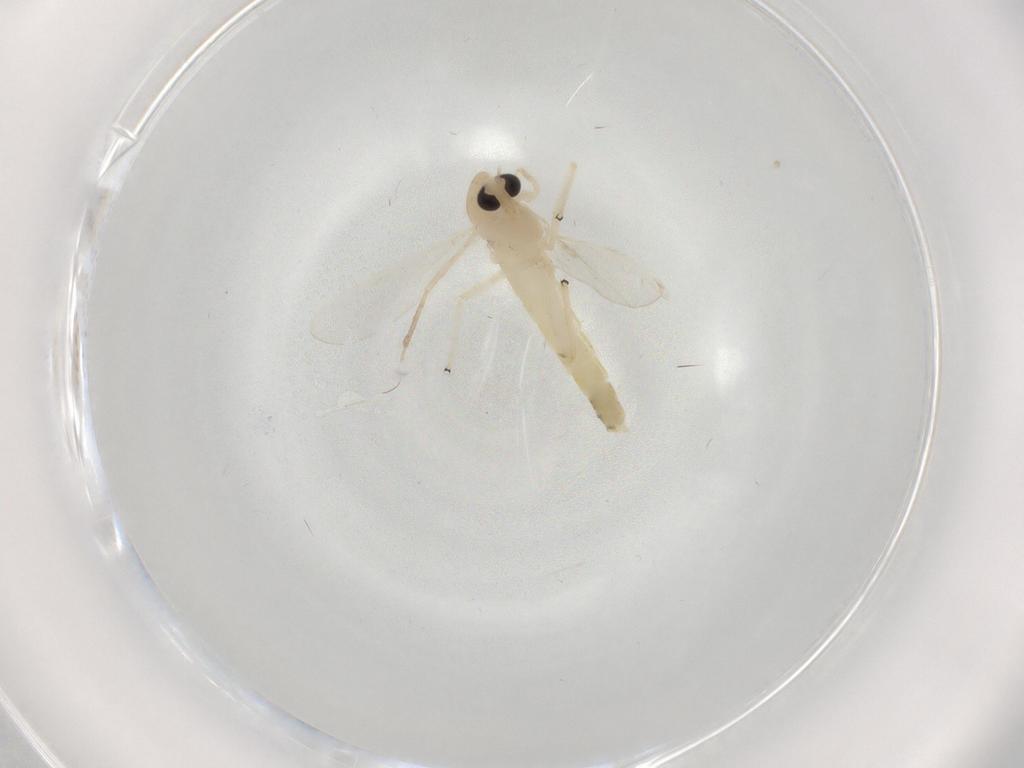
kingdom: Animalia
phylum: Arthropoda
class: Insecta
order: Diptera
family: Chironomidae
